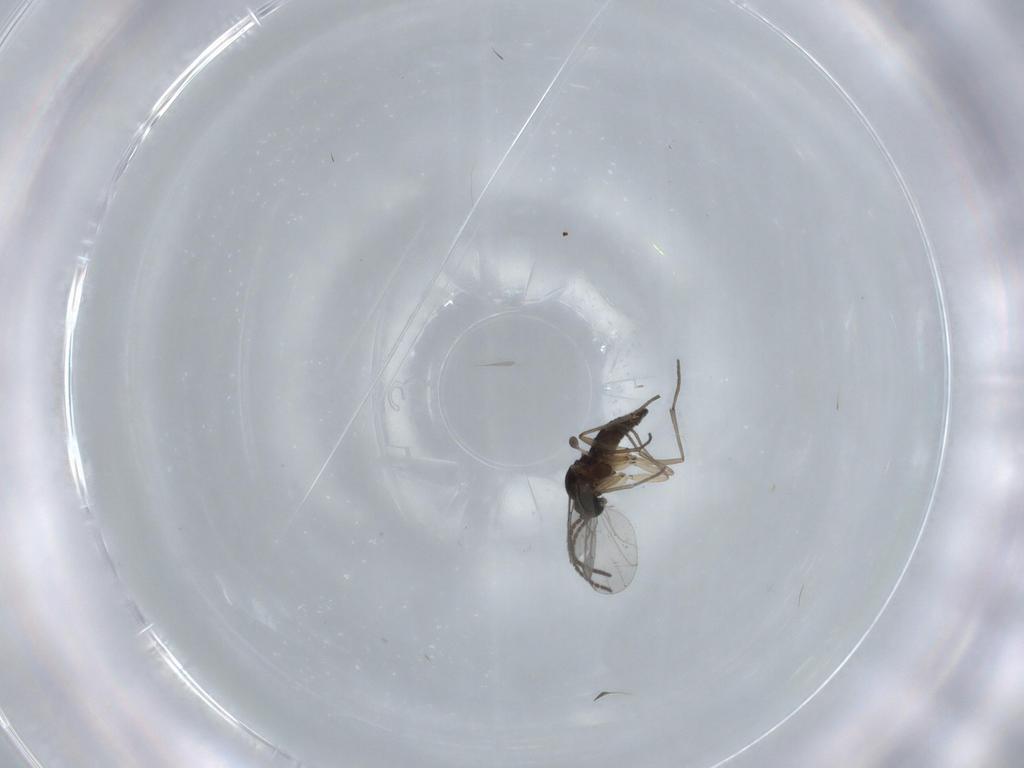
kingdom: Animalia
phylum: Arthropoda
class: Insecta
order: Diptera
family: Sciaridae
